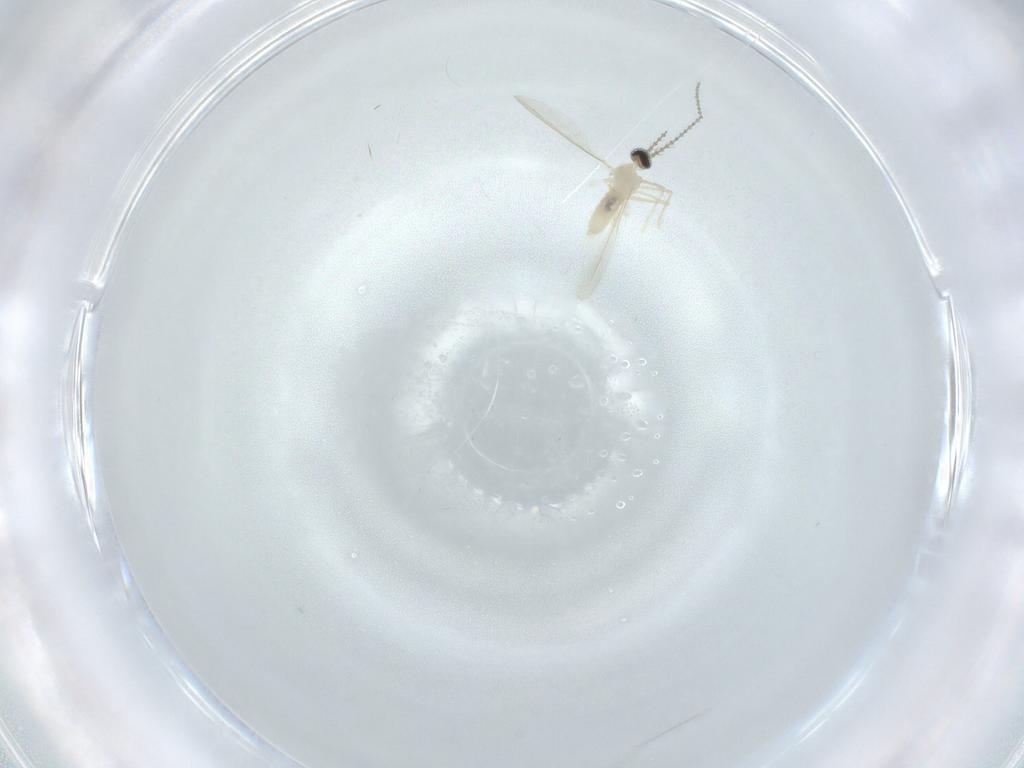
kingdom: Animalia
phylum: Arthropoda
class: Insecta
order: Diptera
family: Cecidomyiidae
